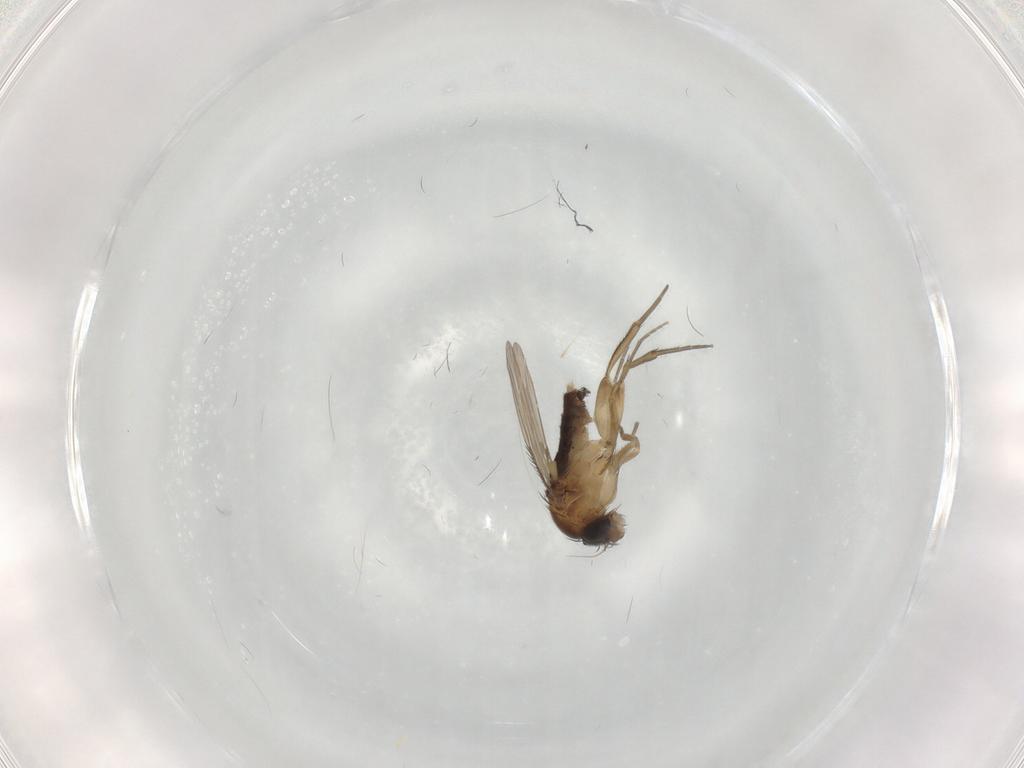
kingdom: Animalia
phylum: Arthropoda
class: Insecta
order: Diptera
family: Phoridae
